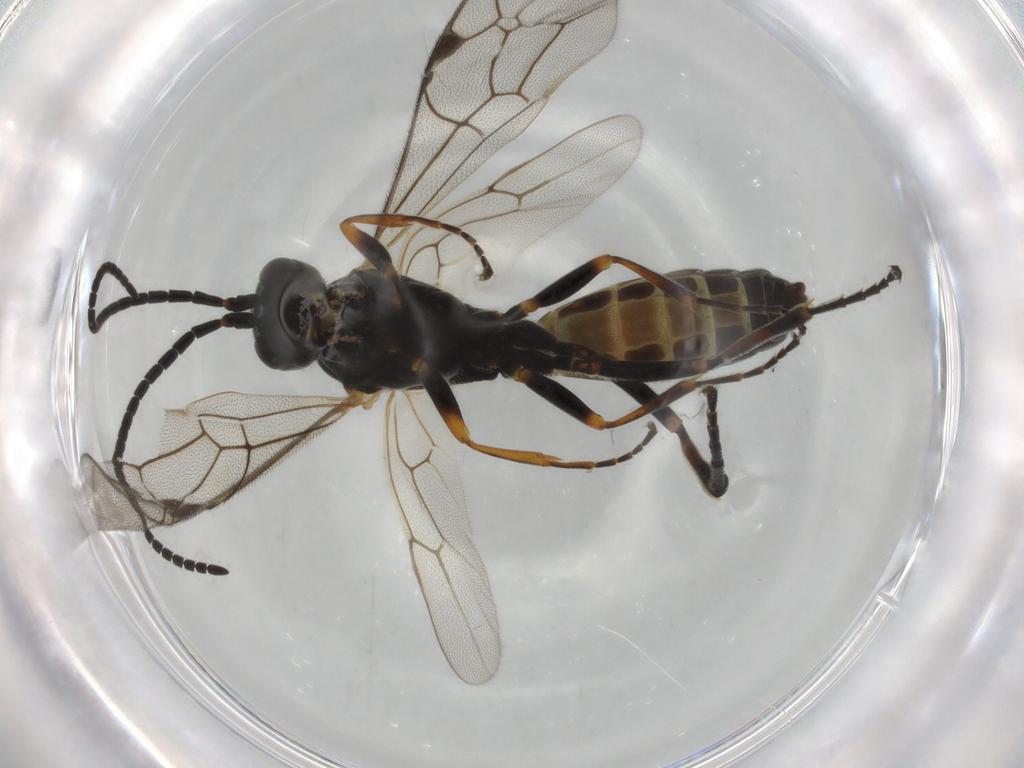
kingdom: Animalia
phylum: Arthropoda
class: Insecta
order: Hymenoptera
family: Ichneumonidae
